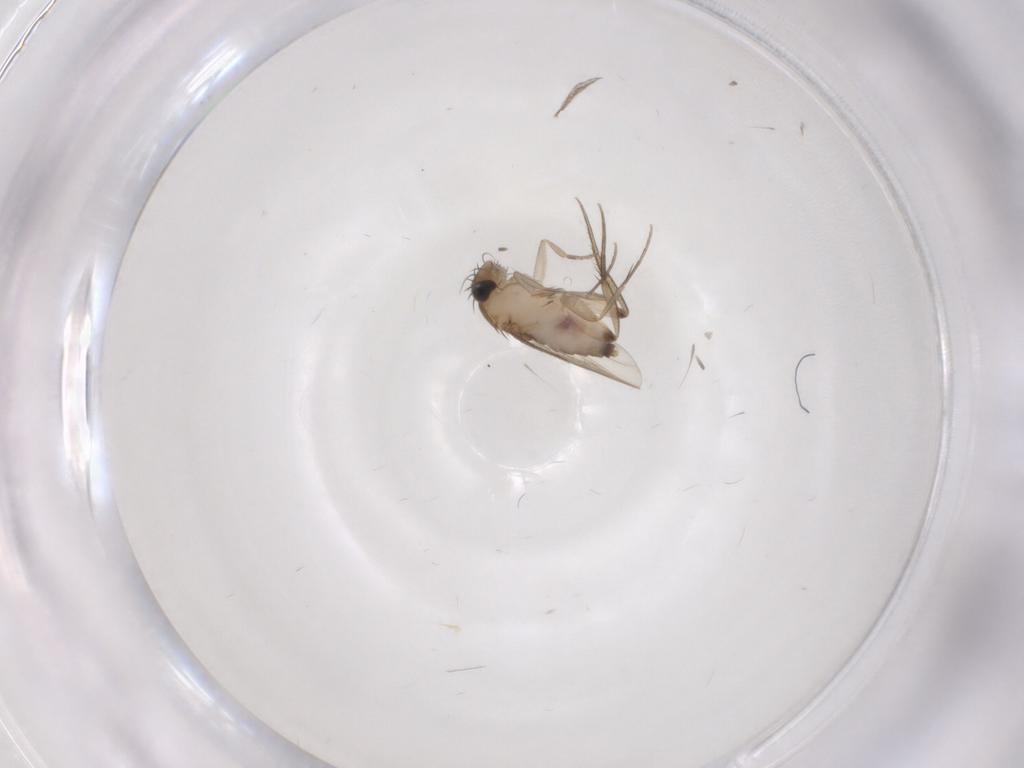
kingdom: Animalia
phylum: Arthropoda
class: Insecta
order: Diptera
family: Phoridae
